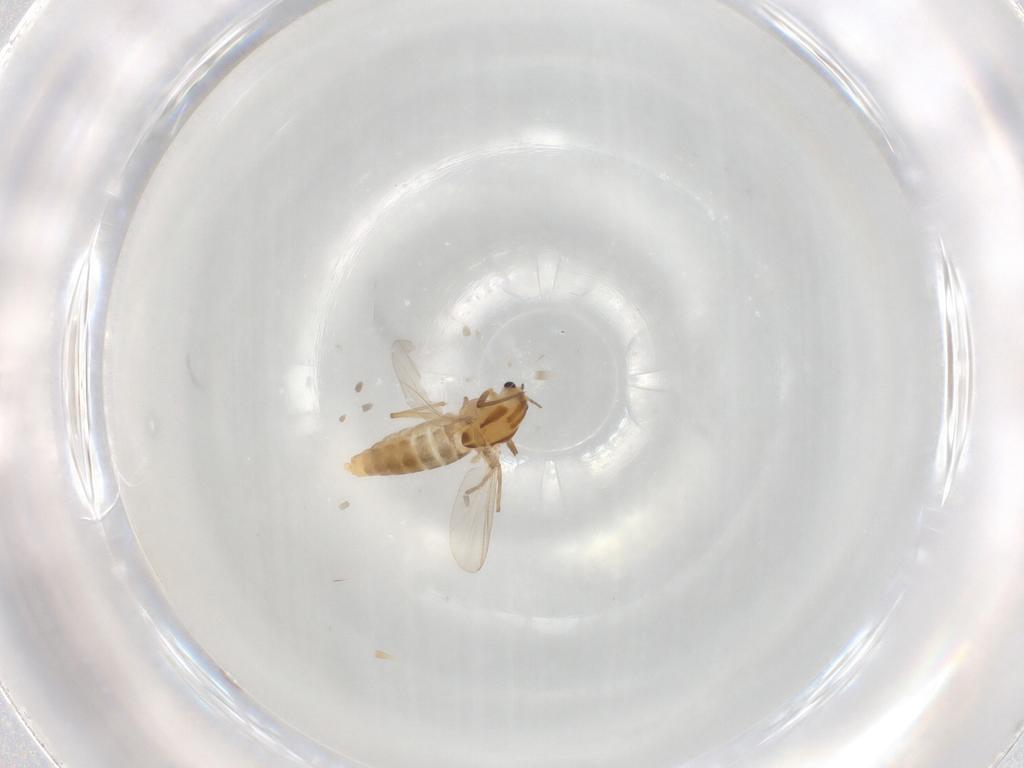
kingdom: Animalia
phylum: Arthropoda
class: Insecta
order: Diptera
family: Chironomidae
